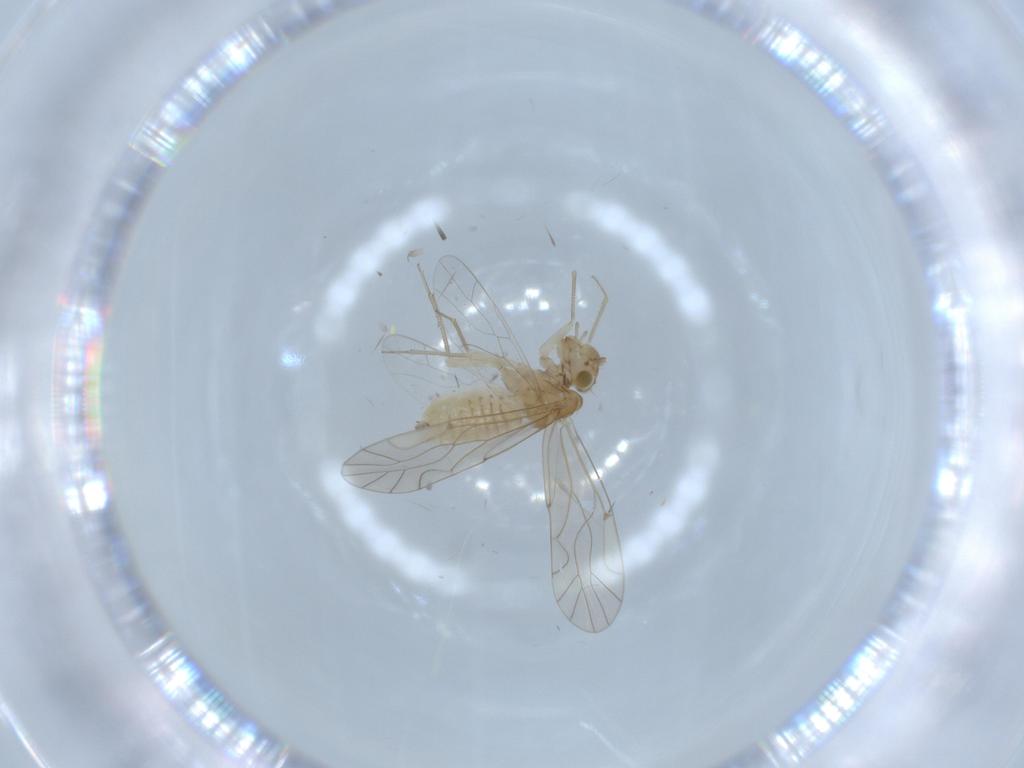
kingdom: Animalia
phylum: Arthropoda
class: Insecta
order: Psocodea
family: Lachesillidae
